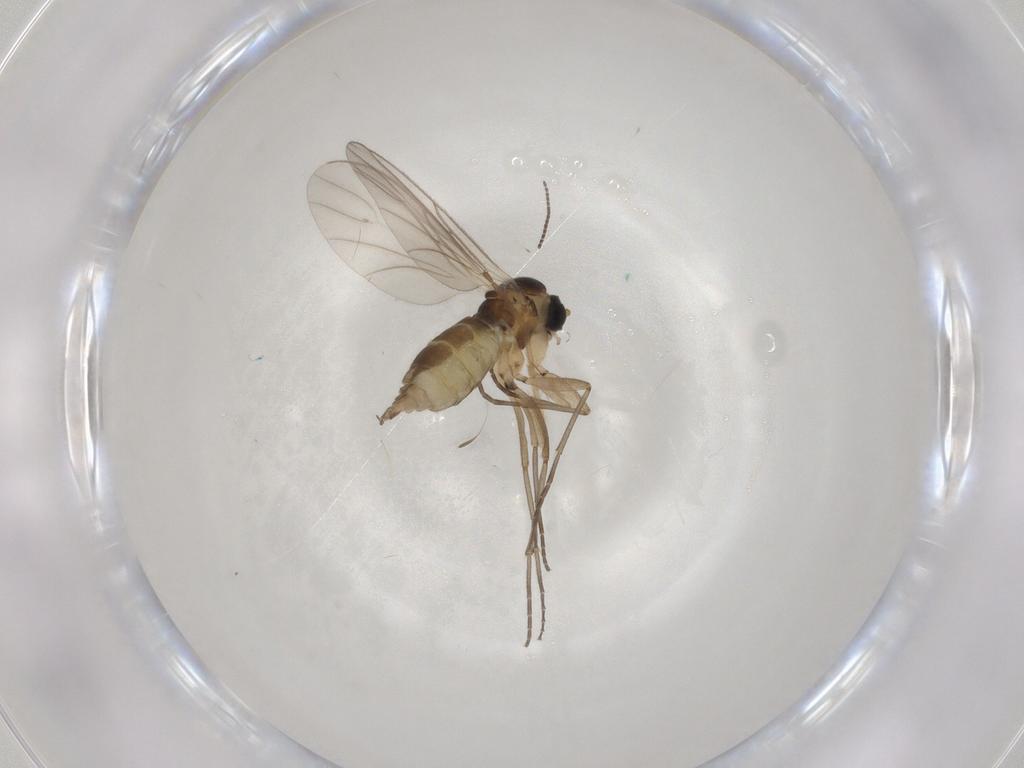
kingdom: Animalia
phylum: Arthropoda
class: Insecta
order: Diptera
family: Chironomidae
